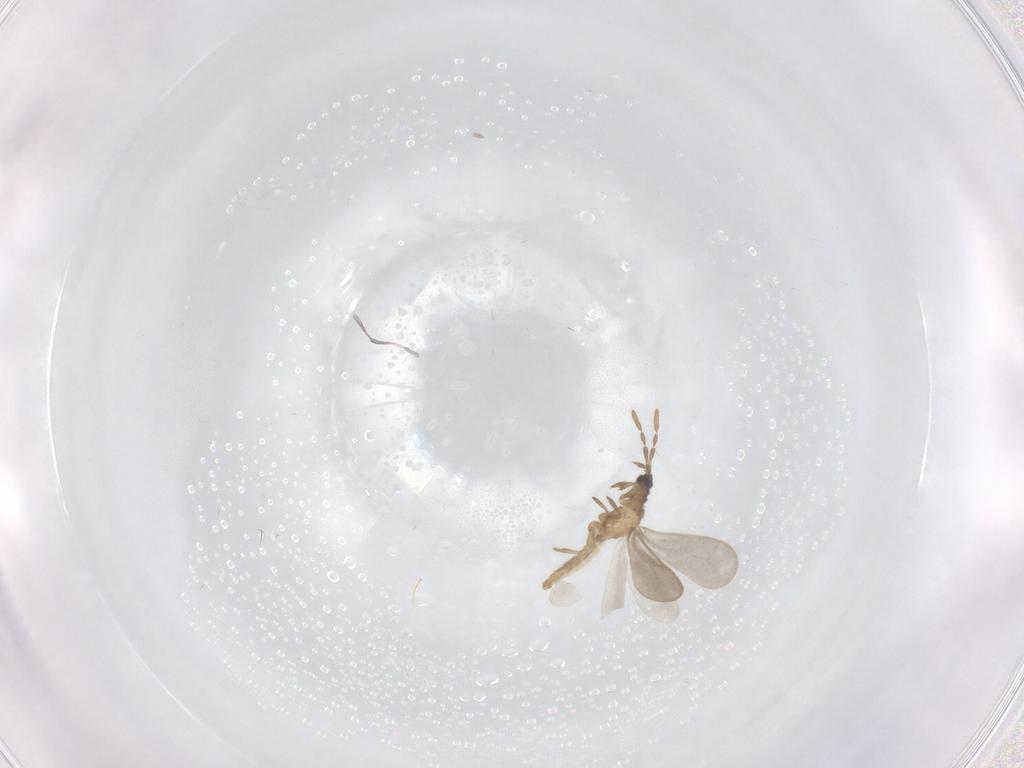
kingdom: Animalia
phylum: Arthropoda
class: Insecta
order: Hemiptera
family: Enicocephalidae
